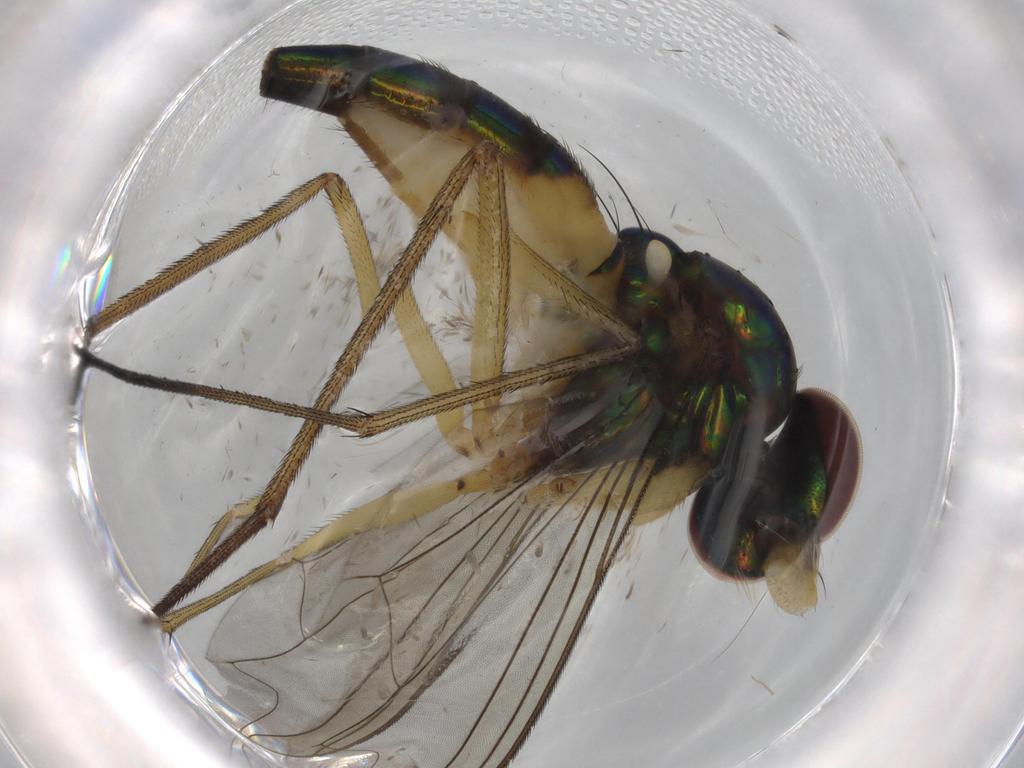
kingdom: Animalia
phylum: Arthropoda
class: Insecta
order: Diptera
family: Dolichopodidae
